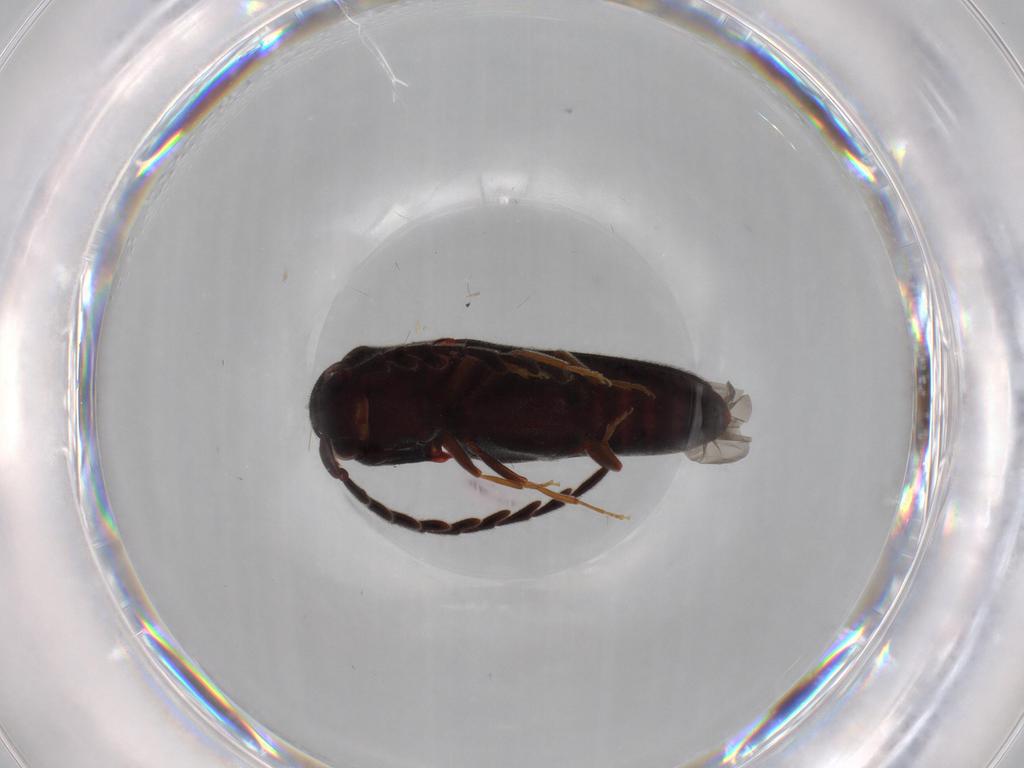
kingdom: Animalia
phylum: Arthropoda
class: Insecta
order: Coleoptera
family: Eucnemidae
